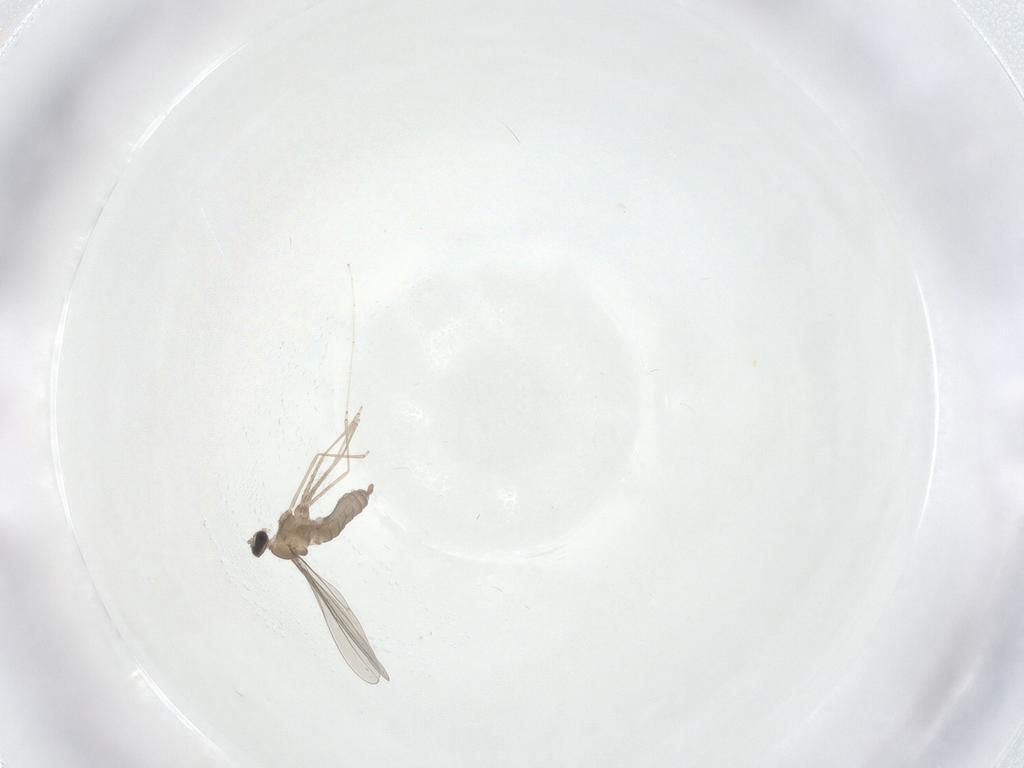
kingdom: Animalia
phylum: Arthropoda
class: Insecta
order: Diptera
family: Cecidomyiidae
